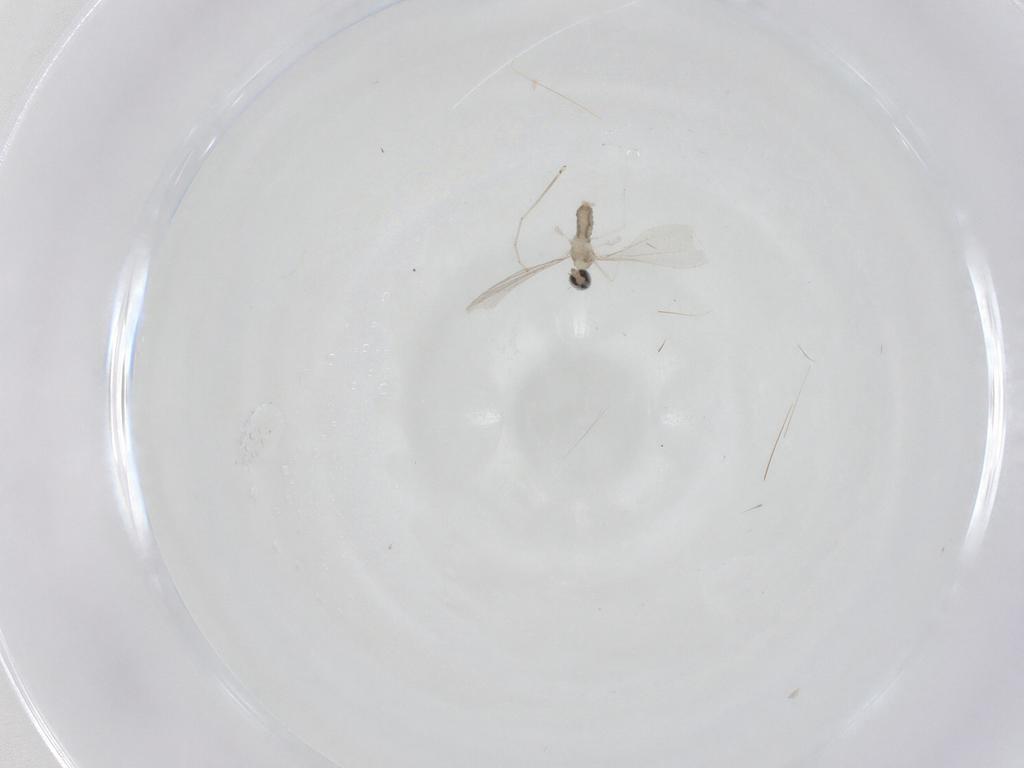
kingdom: Animalia
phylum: Arthropoda
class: Insecta
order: Diptera
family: Cecidomyiidae
